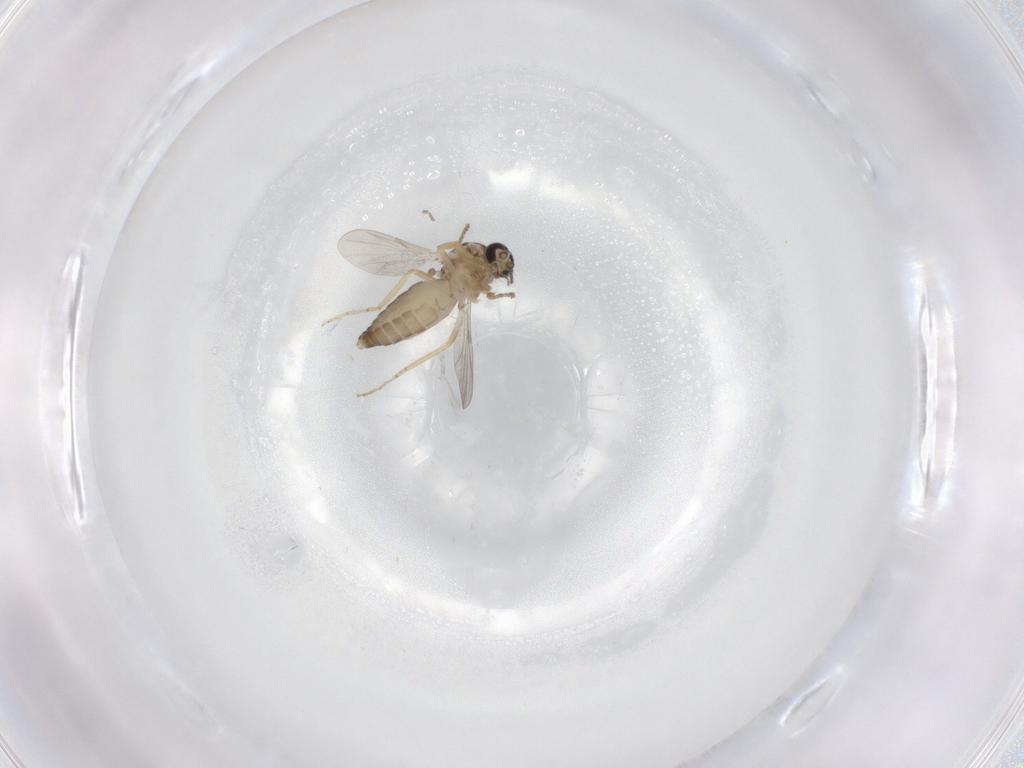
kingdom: Animalia
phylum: Arthropoda
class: Insecta
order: Diptera
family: Ceratopogonidae
